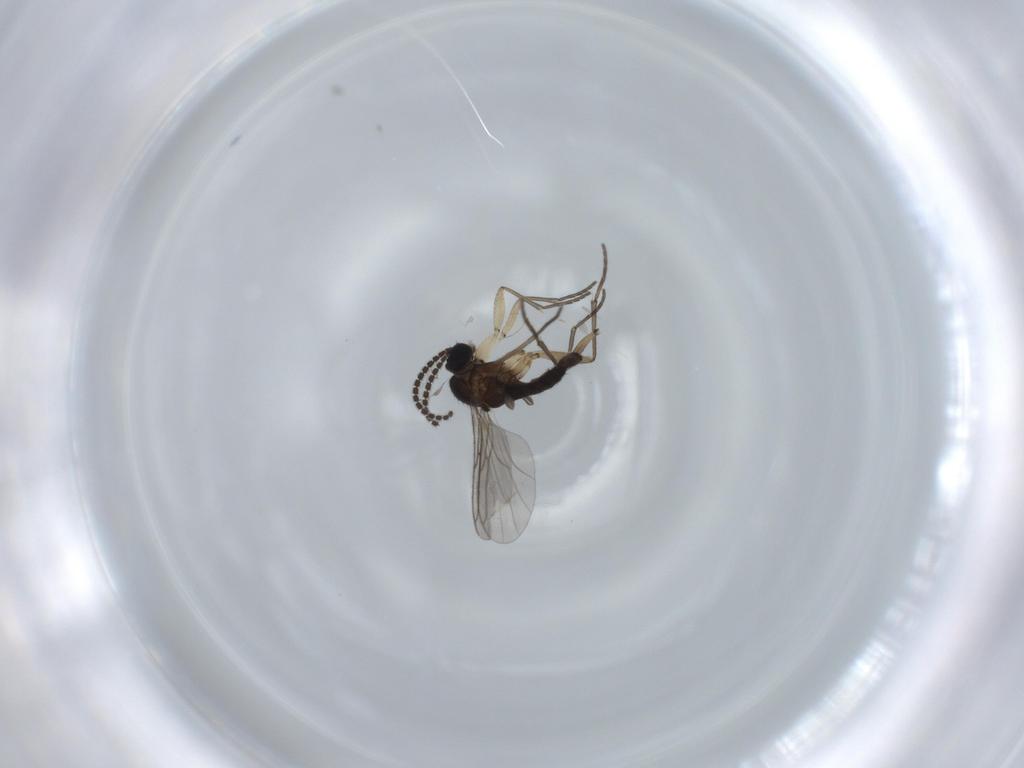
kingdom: Animalia
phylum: Arthropoda
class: Insecta
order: Diptera
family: Sciaridae
